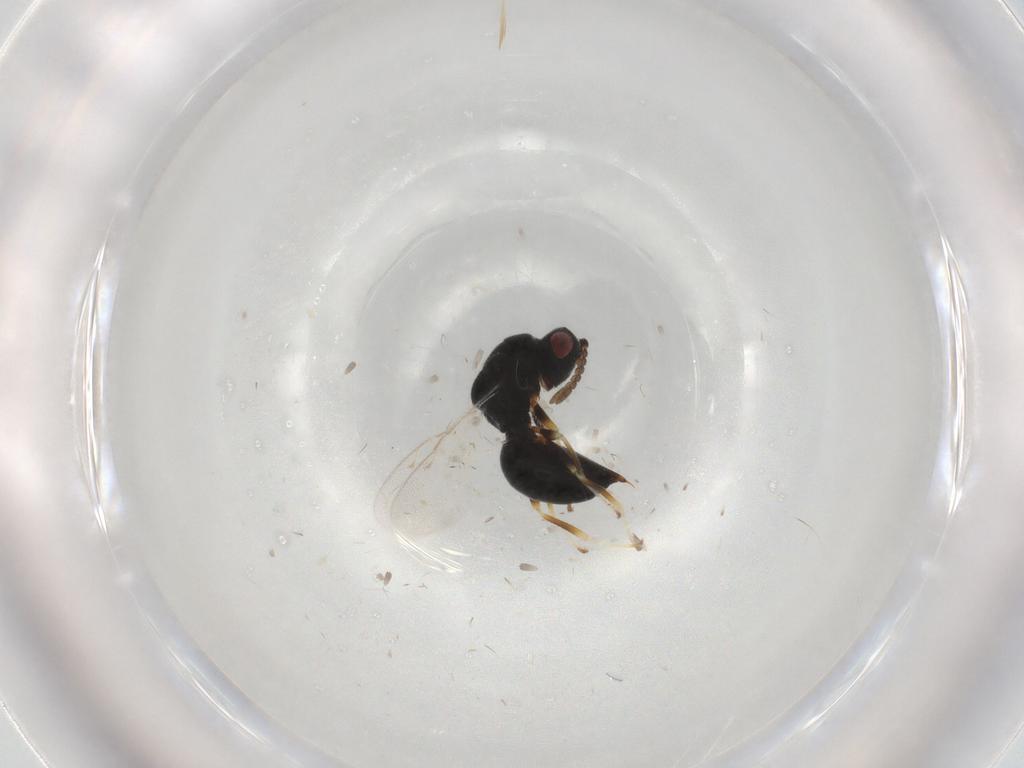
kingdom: Animalia
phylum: Arthropoda
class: Insecta
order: Hymenoptera
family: Eurytomidae
